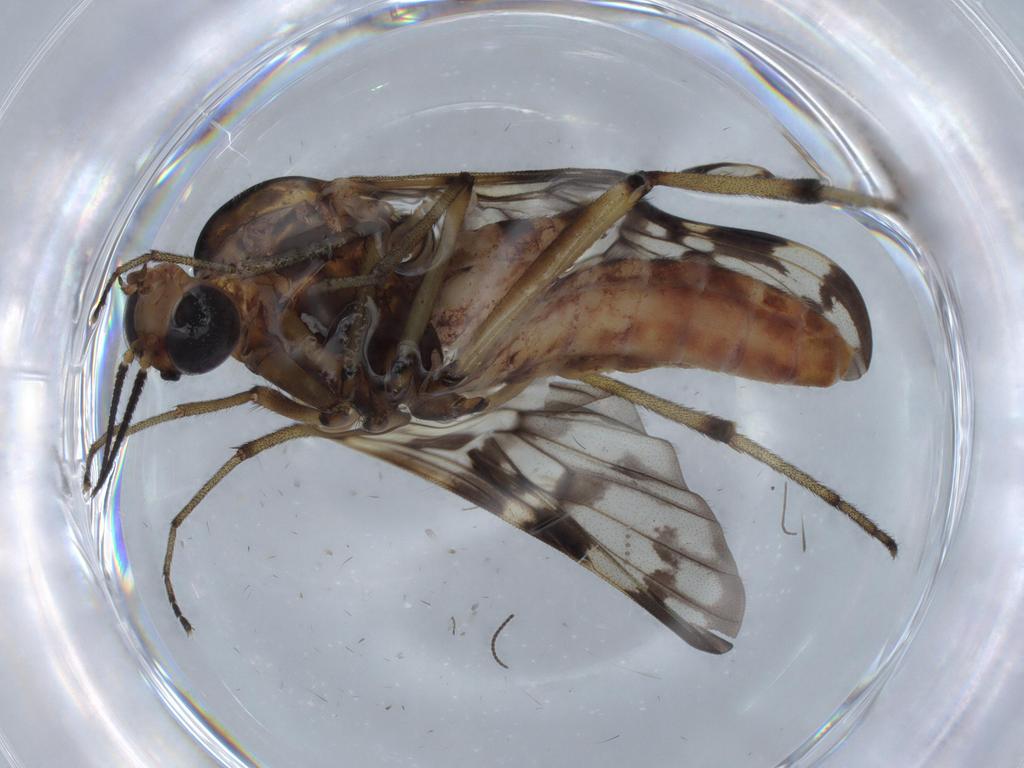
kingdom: Animalia
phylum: Arthropoda
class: Insecta
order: Diptera
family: Anisopodidae
